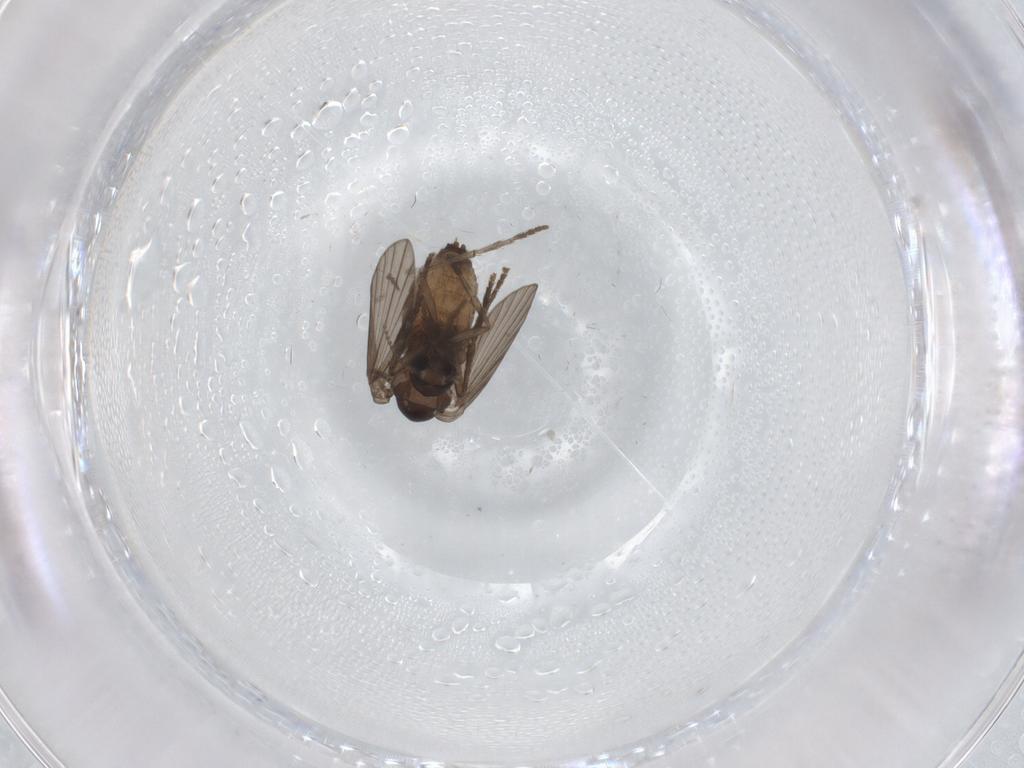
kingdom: Animalia
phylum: Arthropoda
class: Insecta
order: Diptera
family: Psychodidae
